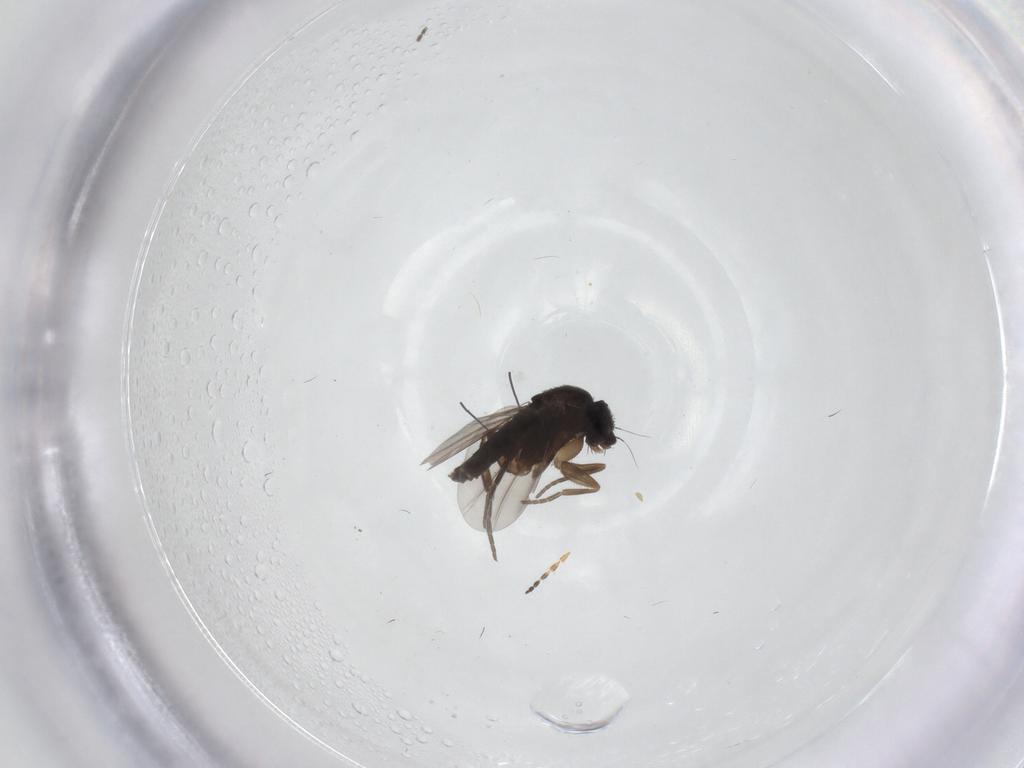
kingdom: Animalia
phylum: Arthropoda
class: Insecta
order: Diptera
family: Phoridae
